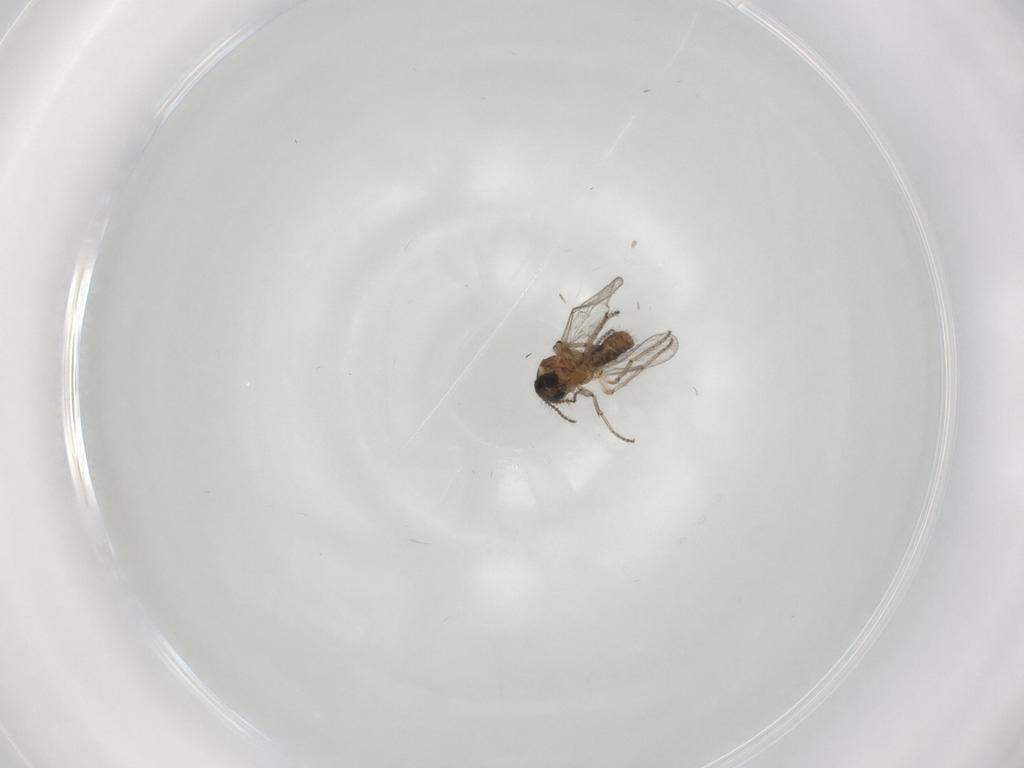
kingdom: Animalia
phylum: Arthropoda
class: Insecta
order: Diptera
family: Ceratopogonidae
